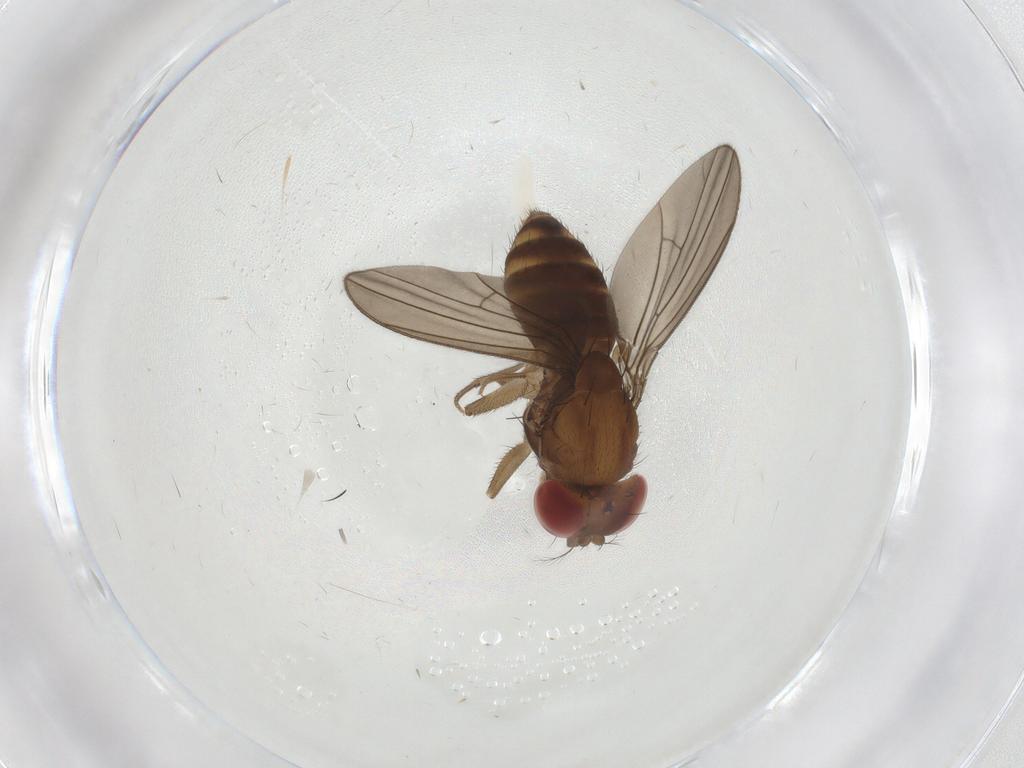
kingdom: Animalia
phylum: Arthropoda
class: Insecta
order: Diptera
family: Drosophilidae
